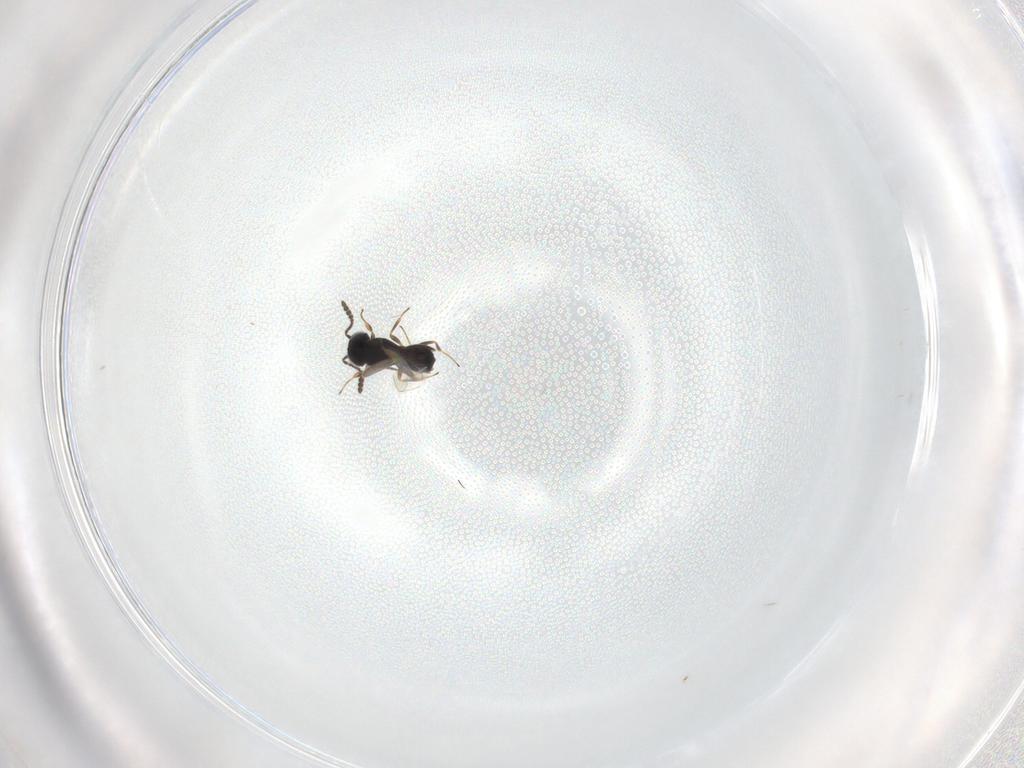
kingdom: Animalia
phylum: Arthropoda
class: Insecta
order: Hymenoptera
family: Scelionidae
